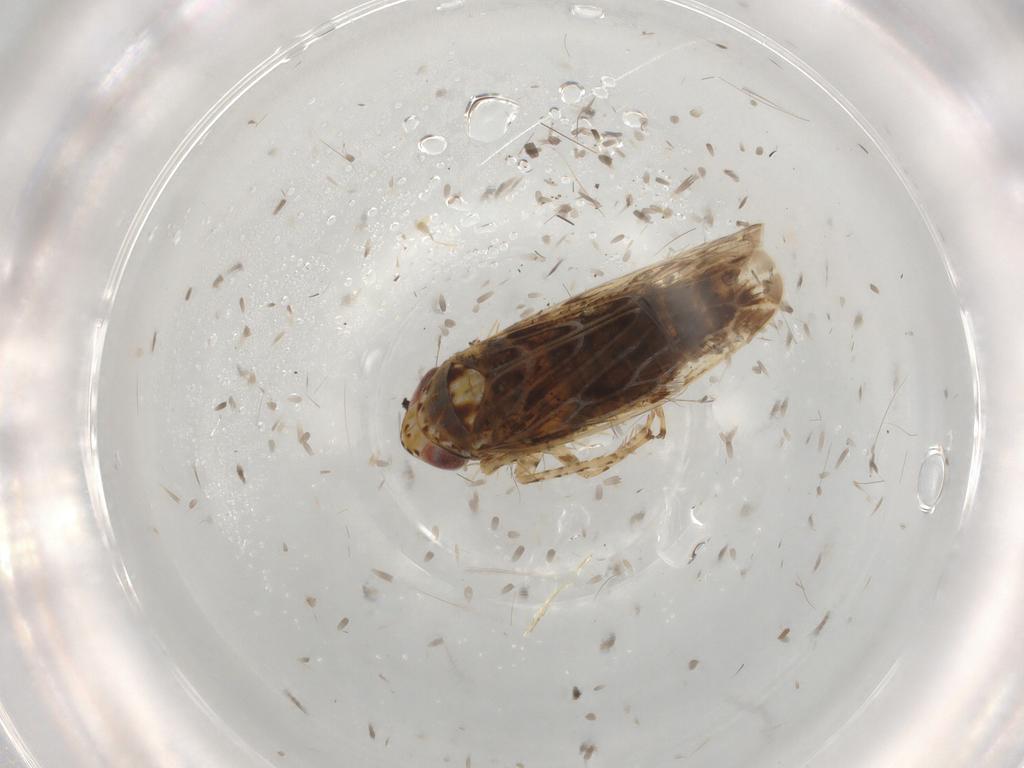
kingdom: Animalia
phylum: Arthropoda
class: Insecta
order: Hemiptera
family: Cicadellidae
